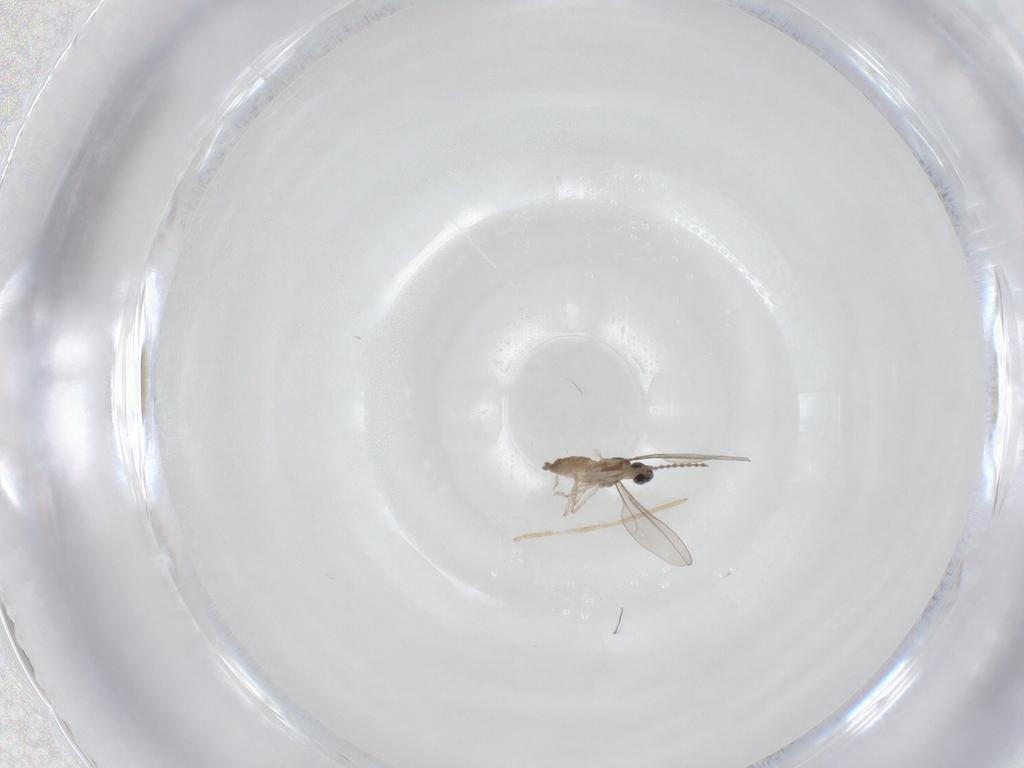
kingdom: Animalia
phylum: Arthropoda
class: Insecta
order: Diptera
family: Cecidomyiidae
